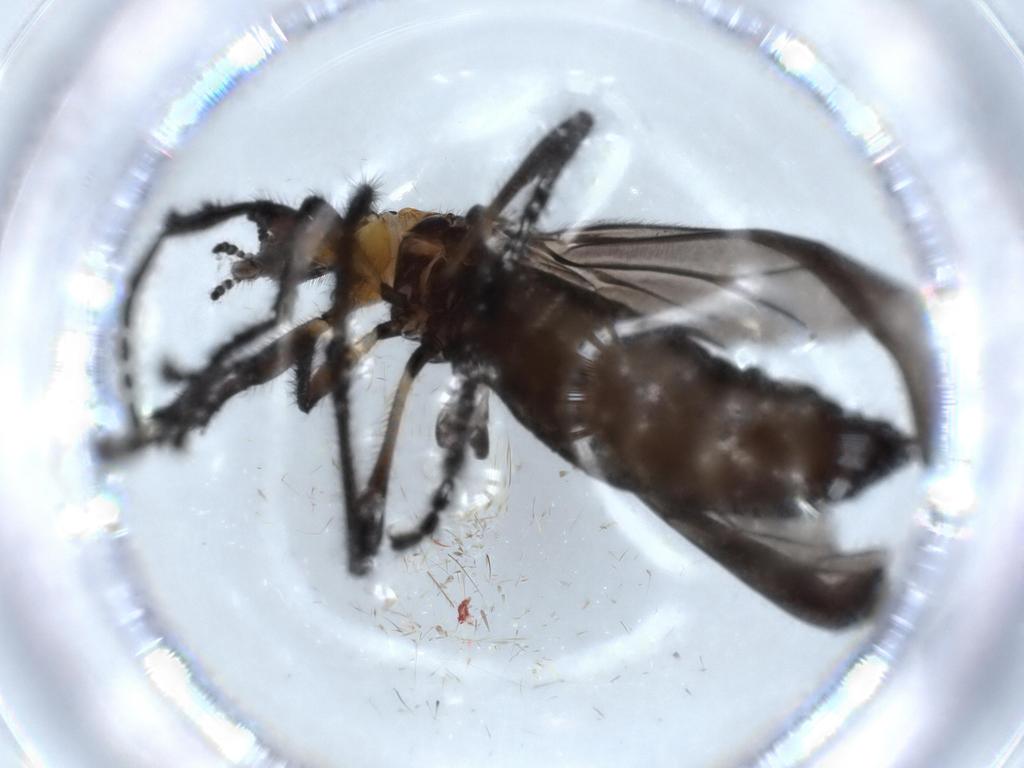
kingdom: Animalia
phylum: Arthropoda
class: Insecta
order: Diptera
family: Bibionidae
